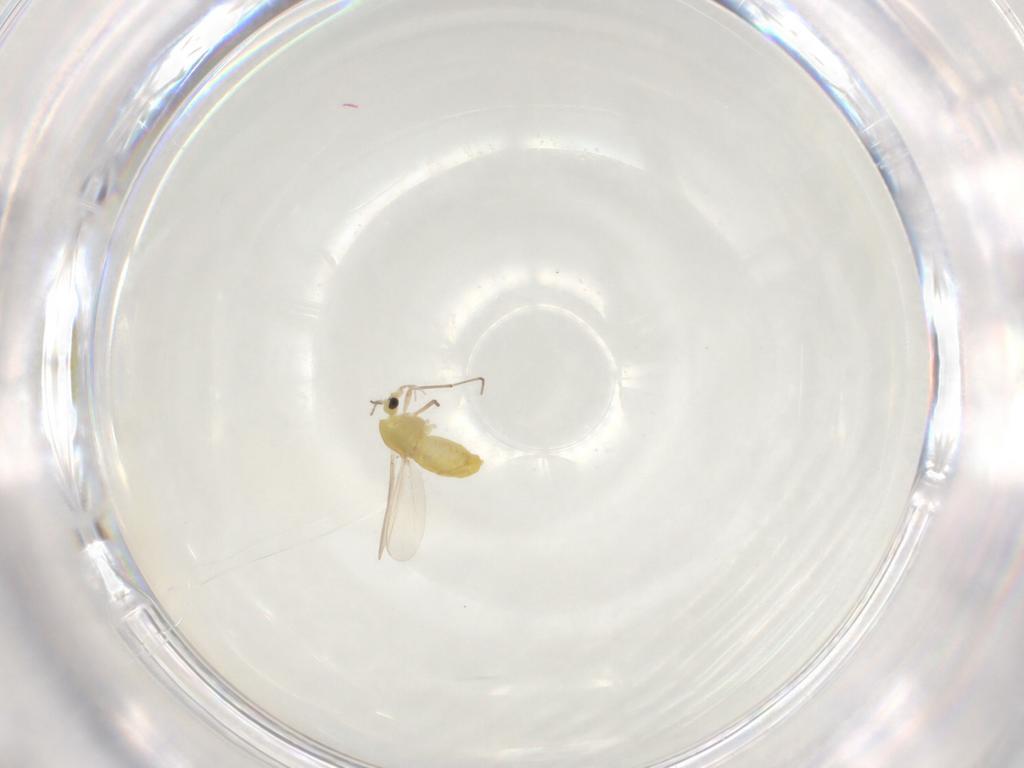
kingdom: Animalia
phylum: Arthropoda
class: Insecta
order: Diptera
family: Chironomidae
